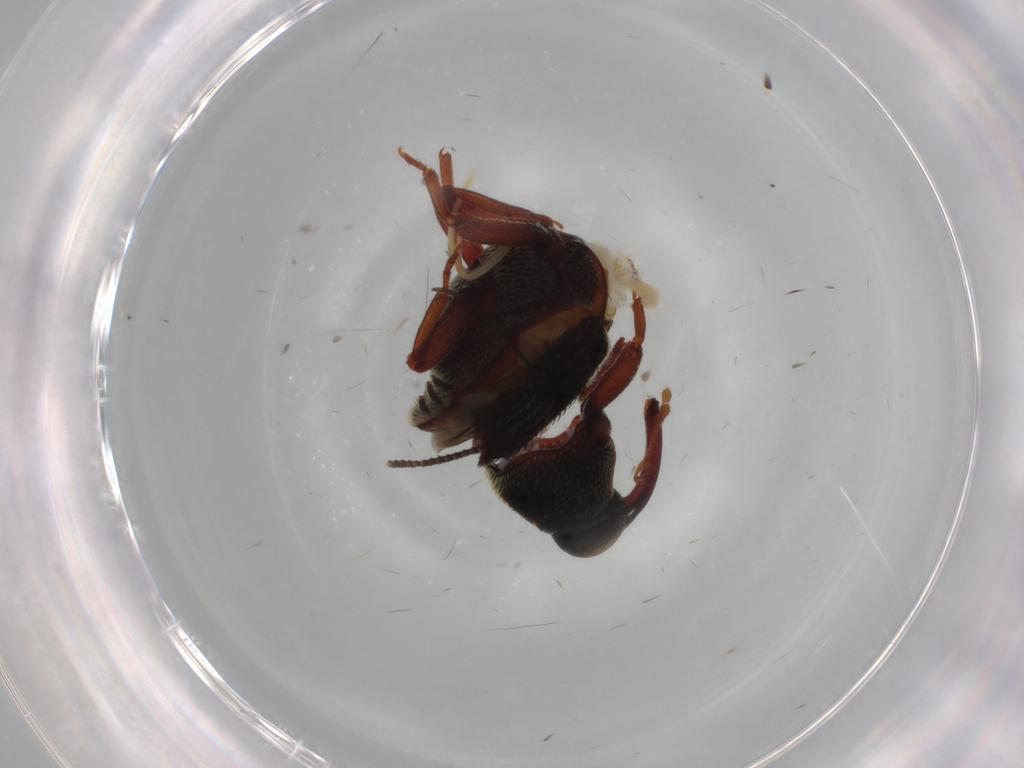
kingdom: Animalia
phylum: Arthropoda
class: Insecta
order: Coleoptera
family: Curculionidae
